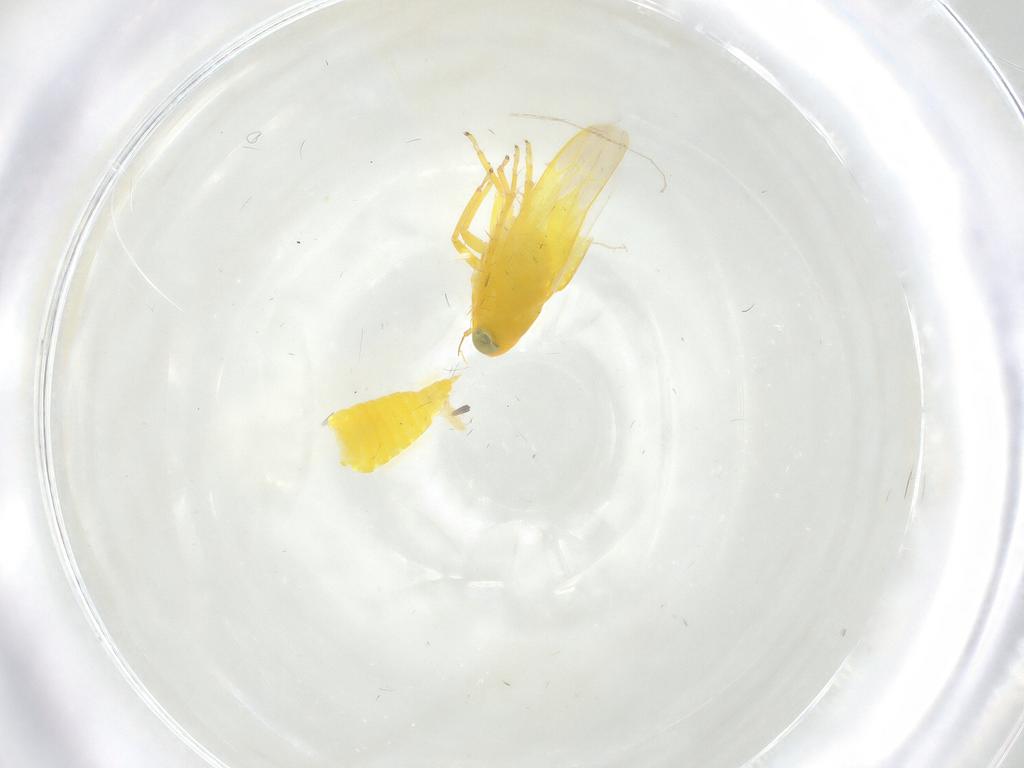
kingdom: Animalia
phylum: Arthropoda
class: Insecta
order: Hemiptera
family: Cicadellidae
